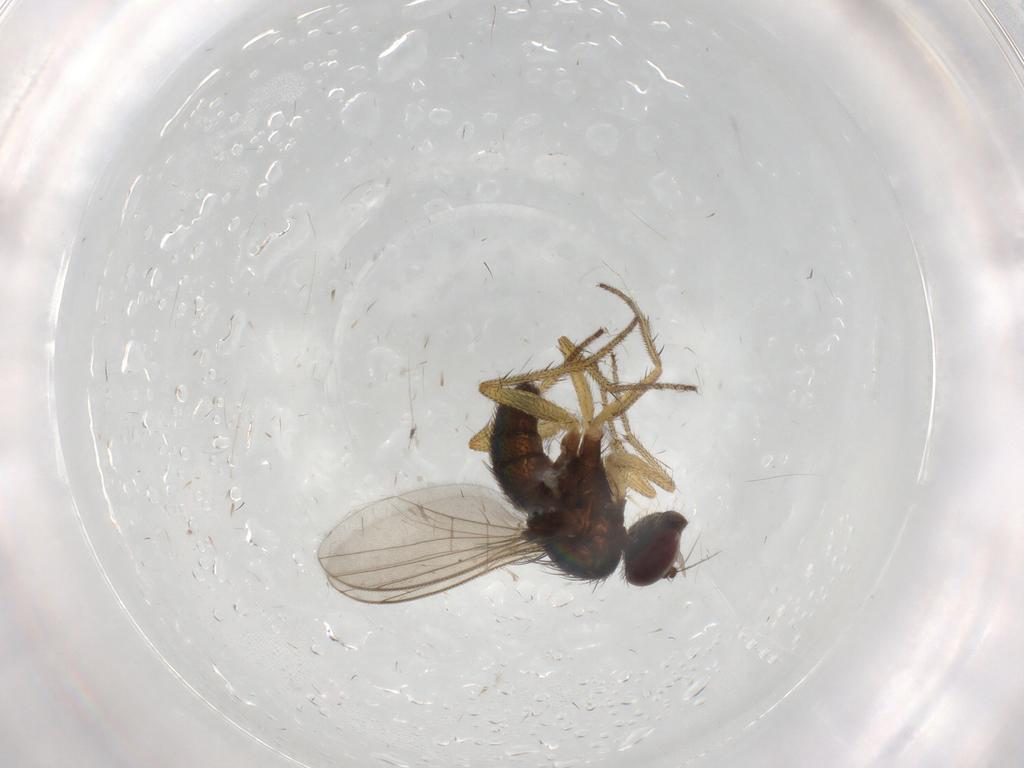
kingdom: Animalia
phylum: Arthropoda
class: Insecta
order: Diptera
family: Dolichopodidae
